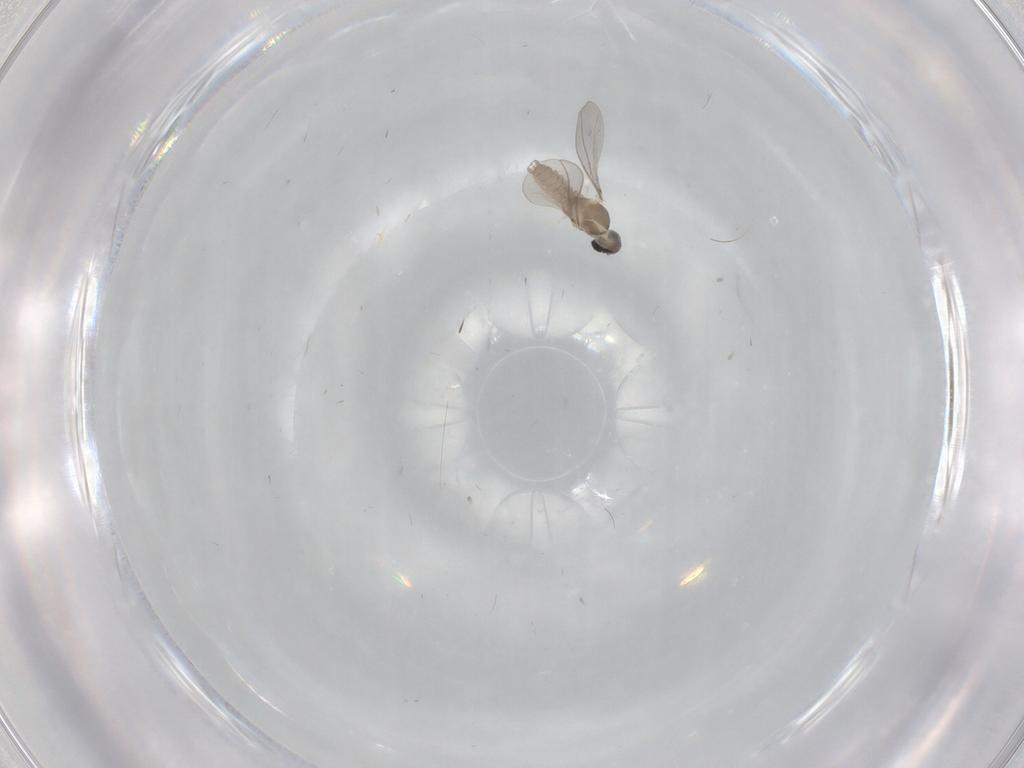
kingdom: Animalia
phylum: Arthropoda
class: Insecta
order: Diptera
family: Cecidomyiidae
